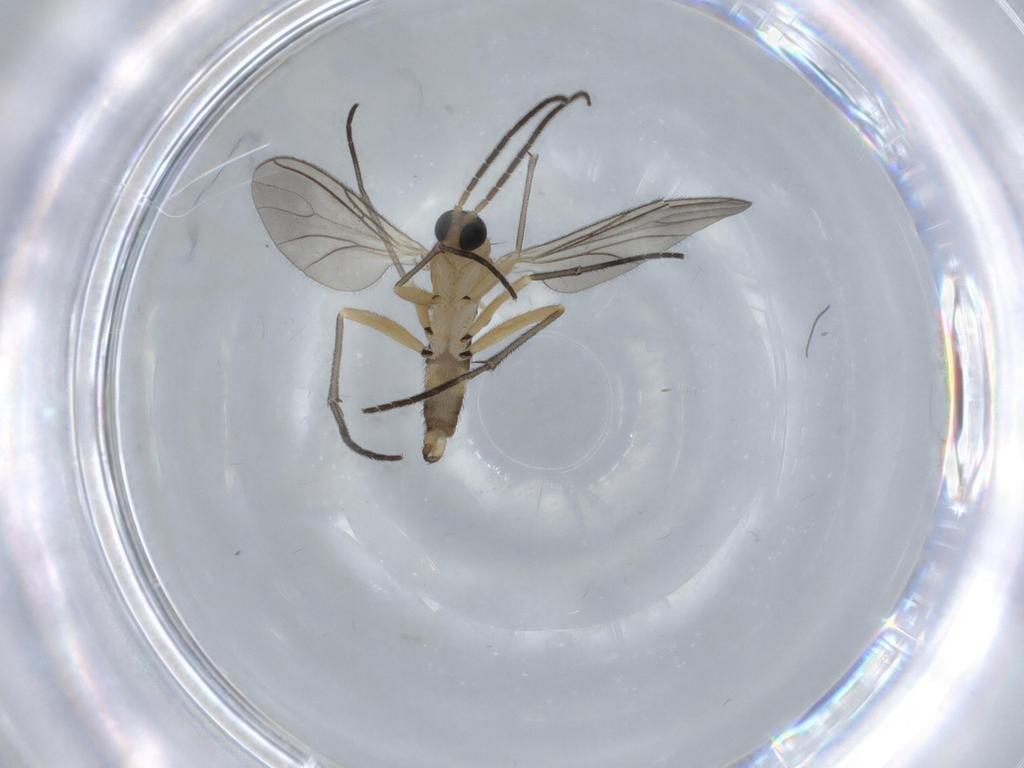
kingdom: Animalia
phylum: Arthropoda
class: Insecta
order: Diptera
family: Sciaridae
